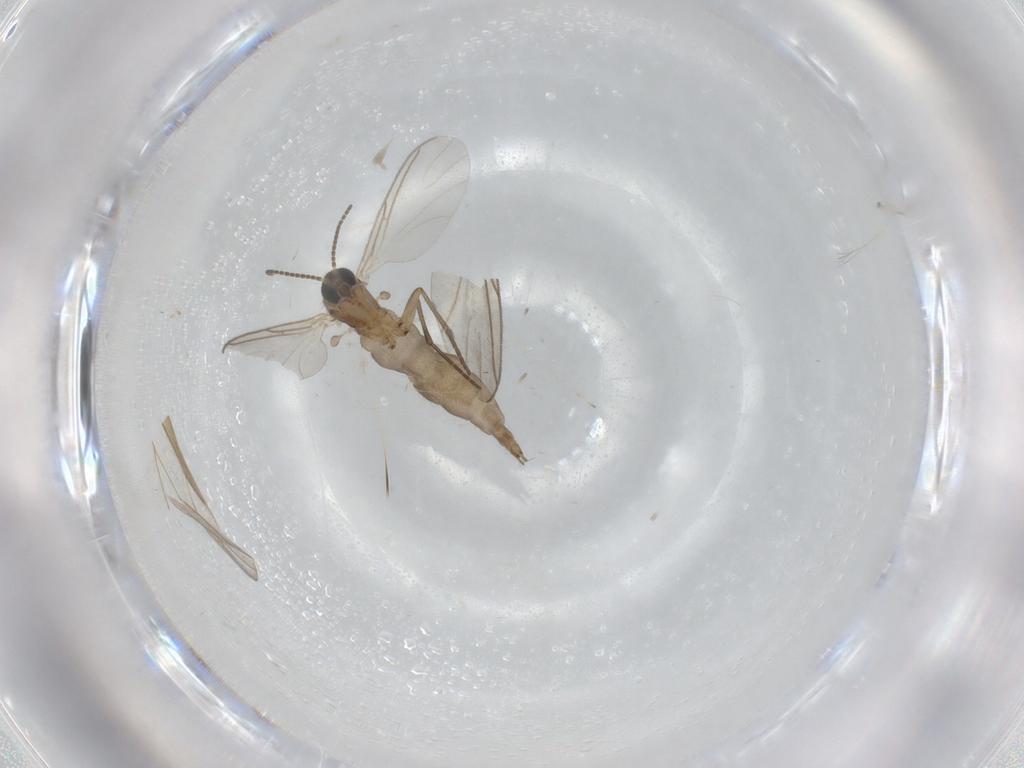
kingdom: Animalia
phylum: Arthropoda
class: Insecta
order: Diptera
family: Sciaridae
